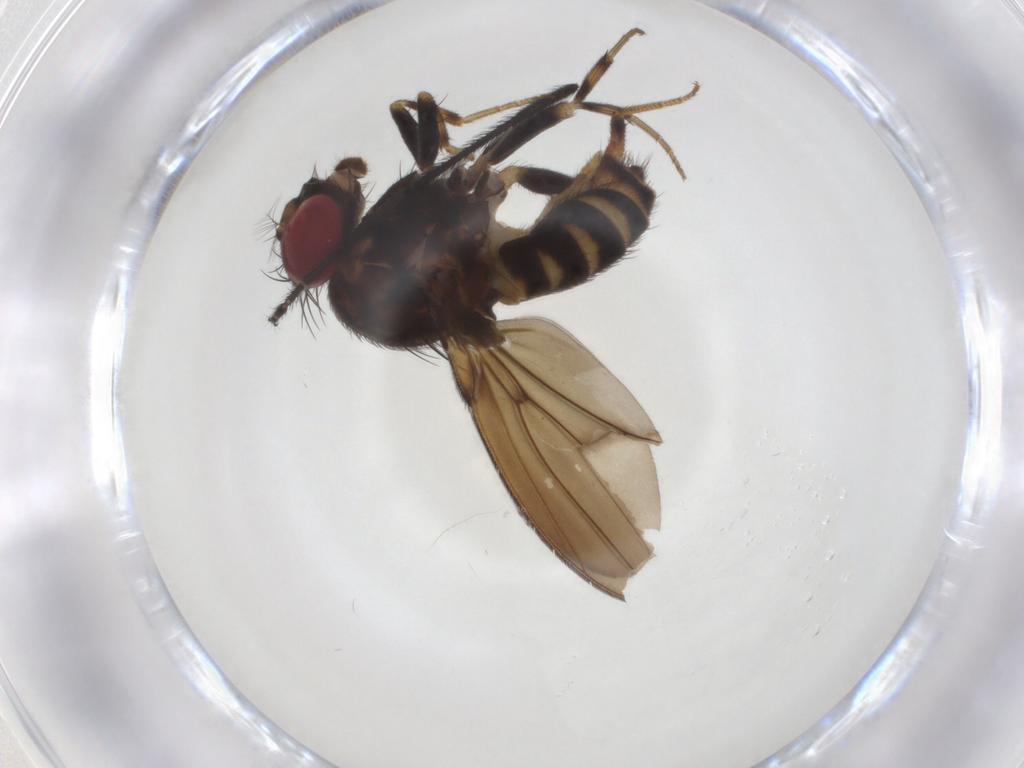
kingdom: Animalia
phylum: Arthropoda
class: Insecta
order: Diptera
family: Drosophilidae
